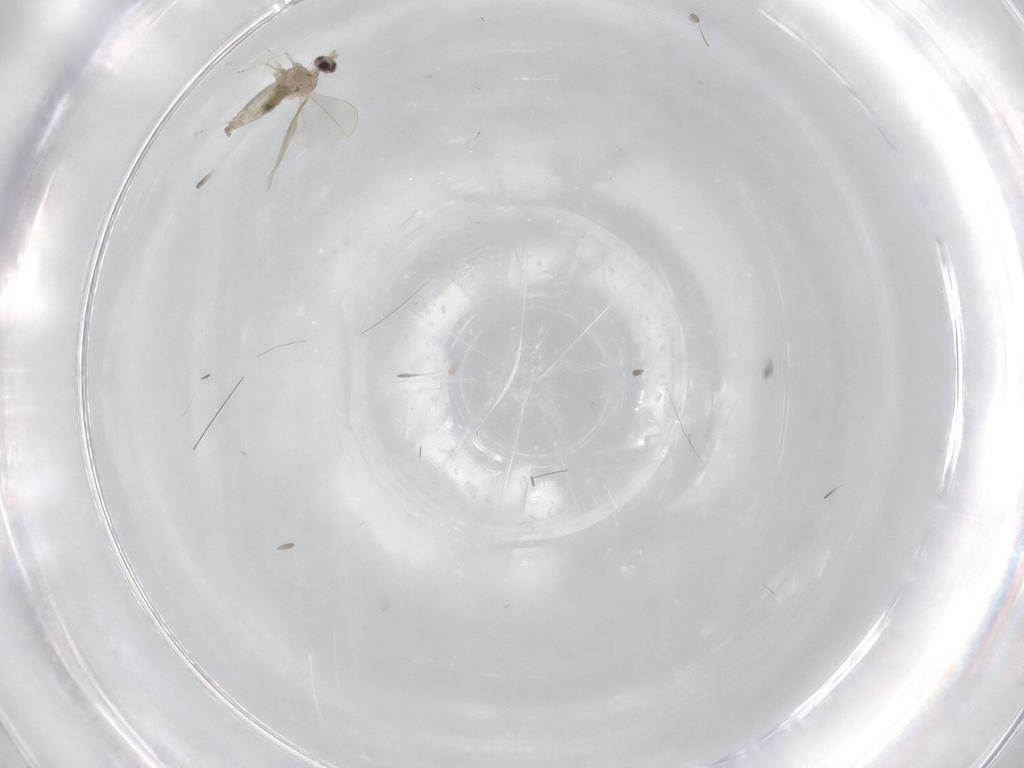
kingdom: Animalia
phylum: Arthropoda
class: Insecta
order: Diptera
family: Cecidomyiidae
